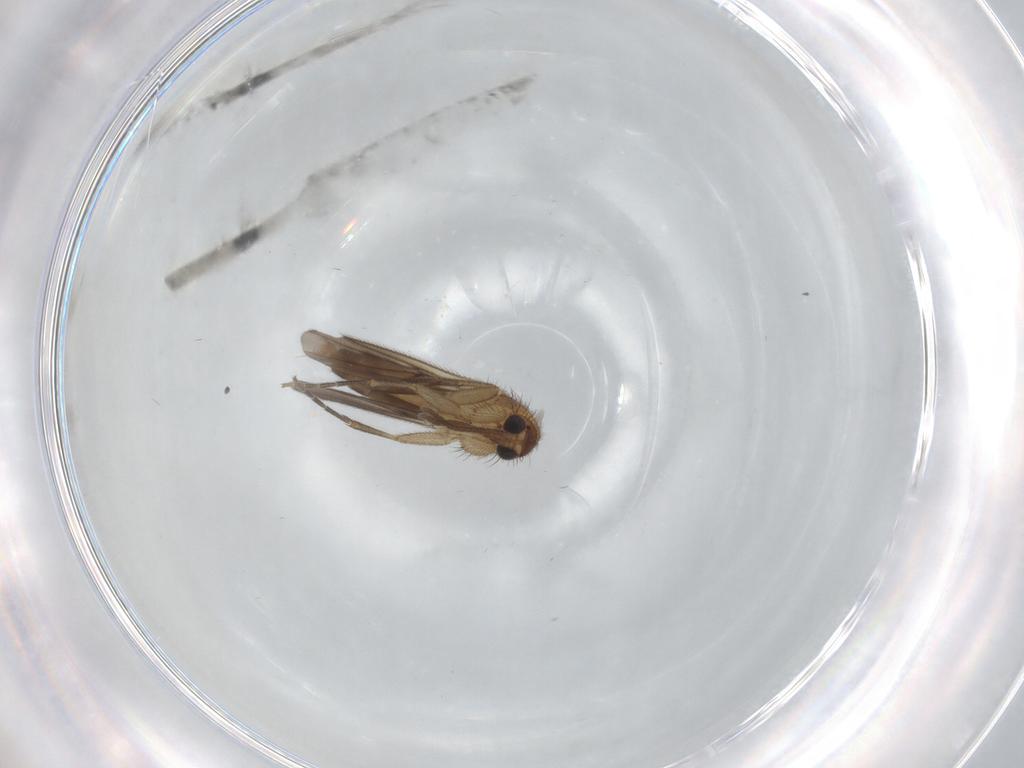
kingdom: Animalia
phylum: Arthropoda
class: Insecta
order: Diptera
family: Mycetophilidae
